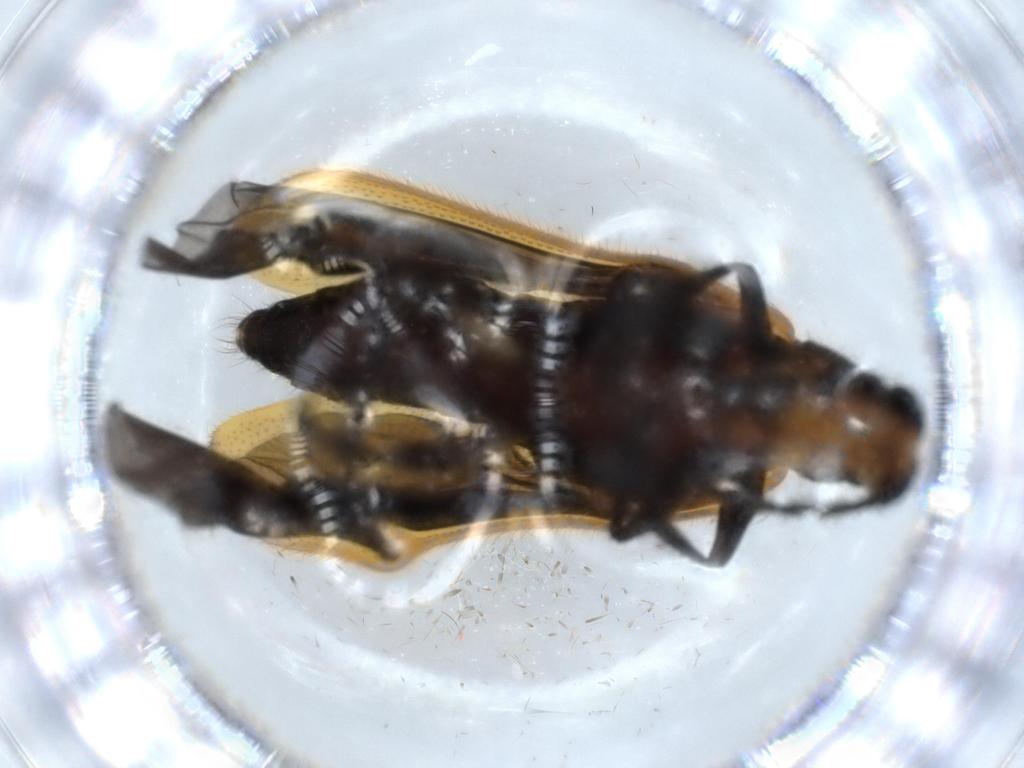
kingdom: Animalia
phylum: Arthropoda
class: Insecta
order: Coleoptera
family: Cleridae
